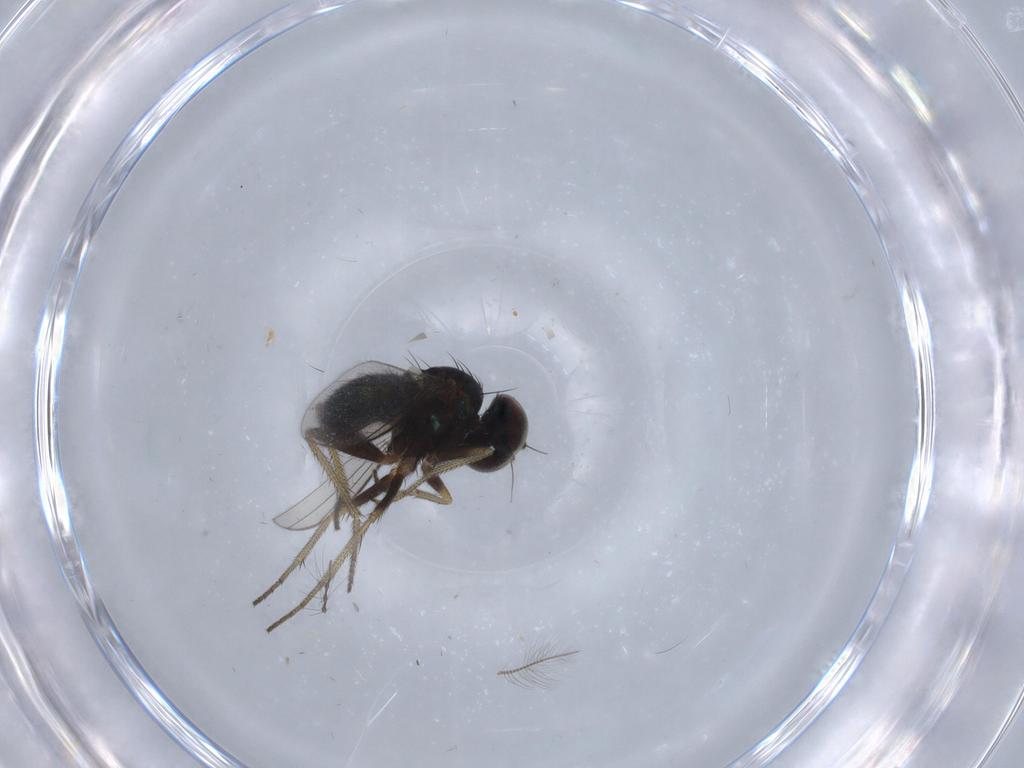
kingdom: Animalia
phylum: Arthropoda
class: Insecta
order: Diptera
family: Dolichopodidae
